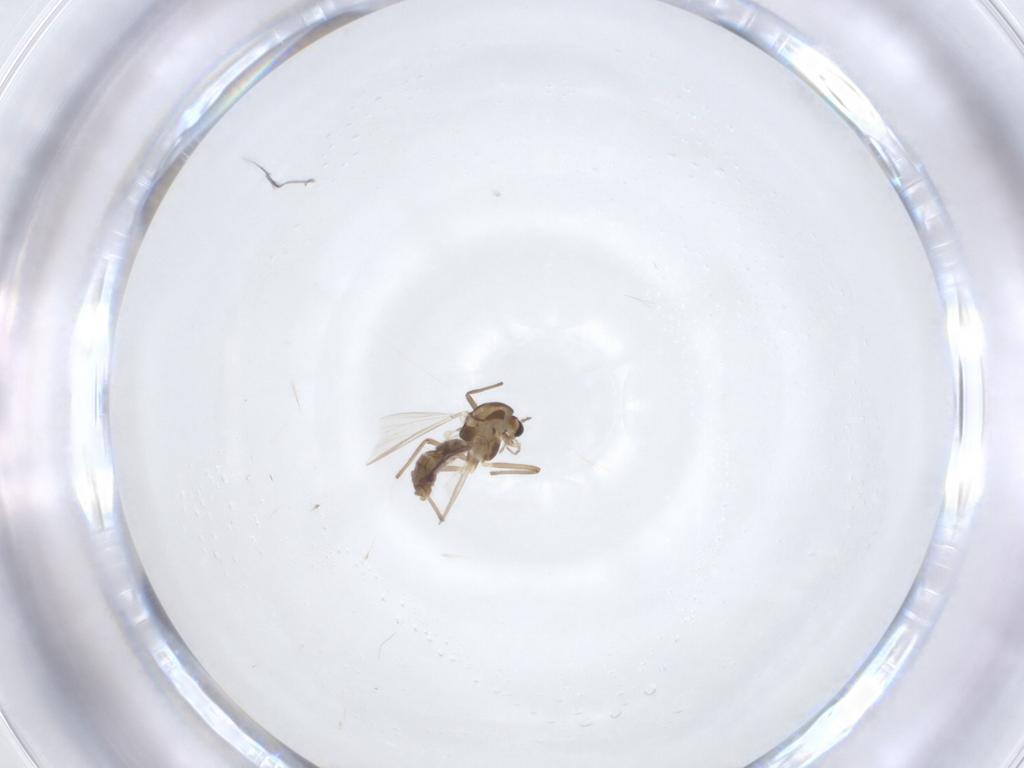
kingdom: Animalia
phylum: Arthropoda
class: Insecta
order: Diptera
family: Chironomidae
